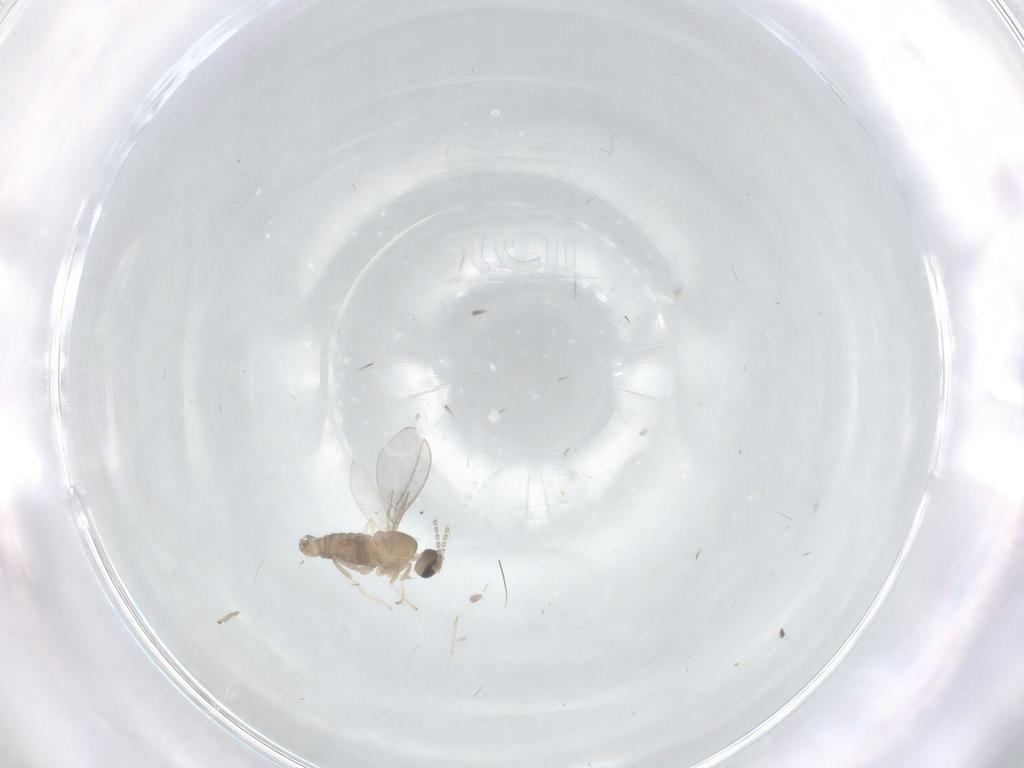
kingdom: Animalia
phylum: Arthropoda
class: Insecta
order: Diptera
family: Chironomidae
